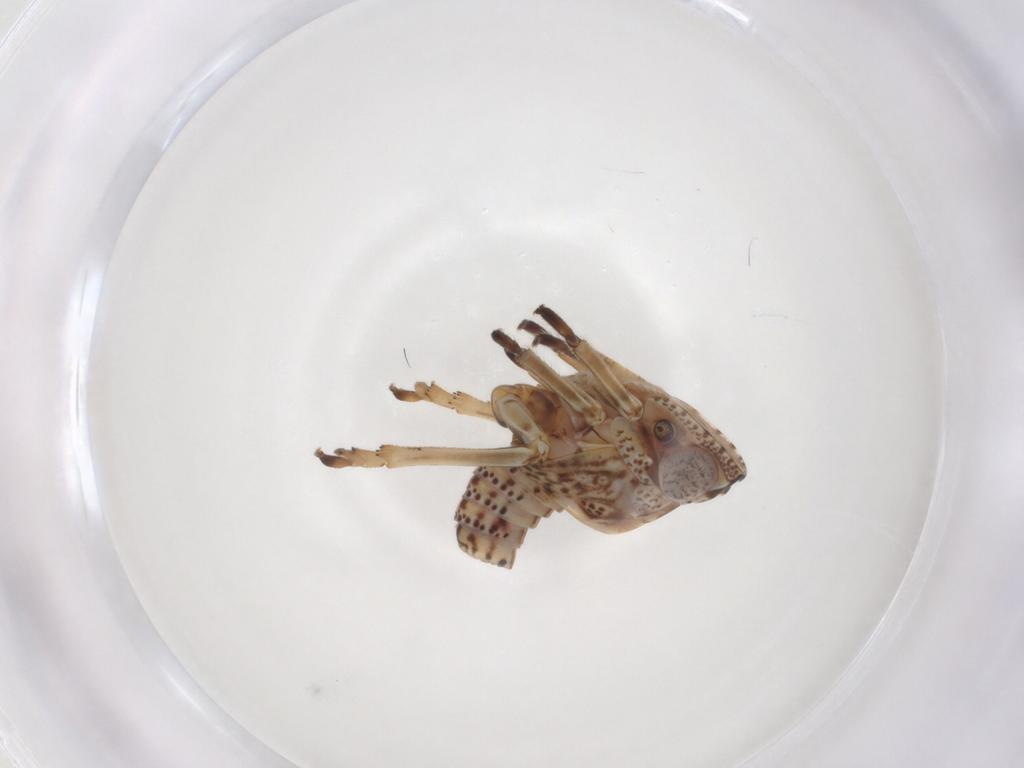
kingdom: Animalia
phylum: Arthropoda
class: Insecta
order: Hemiptera
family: Tropiduchidae
